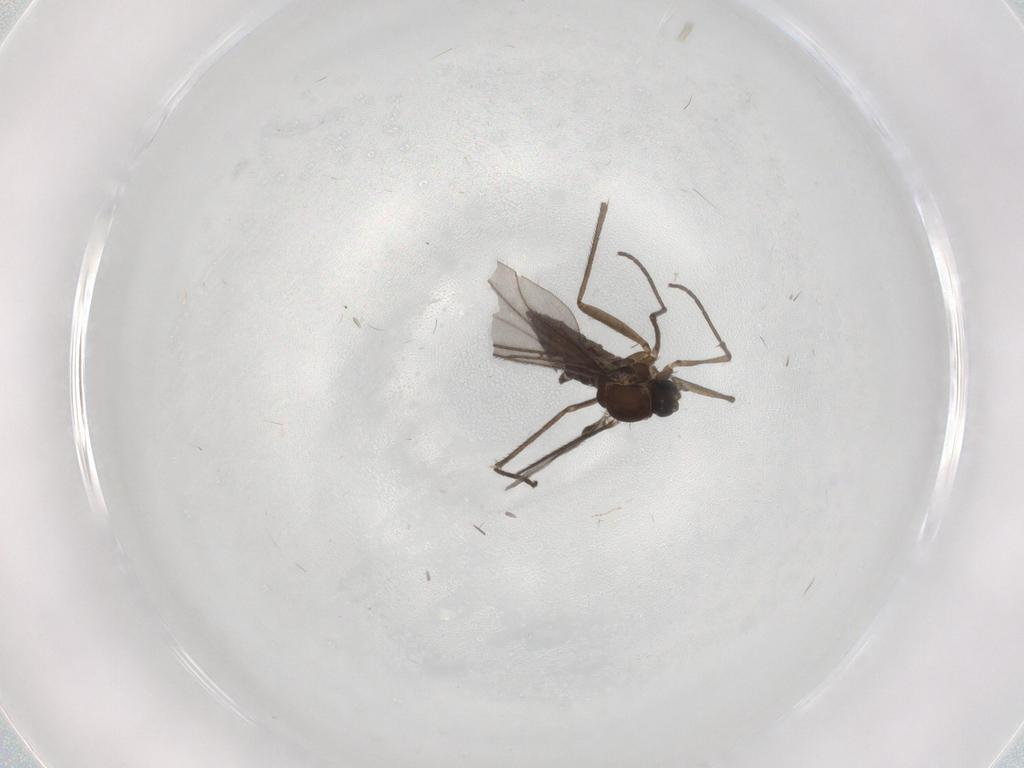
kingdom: Animalia
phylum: Arthropoda
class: Insecta
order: Diptera
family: Sciaridae
